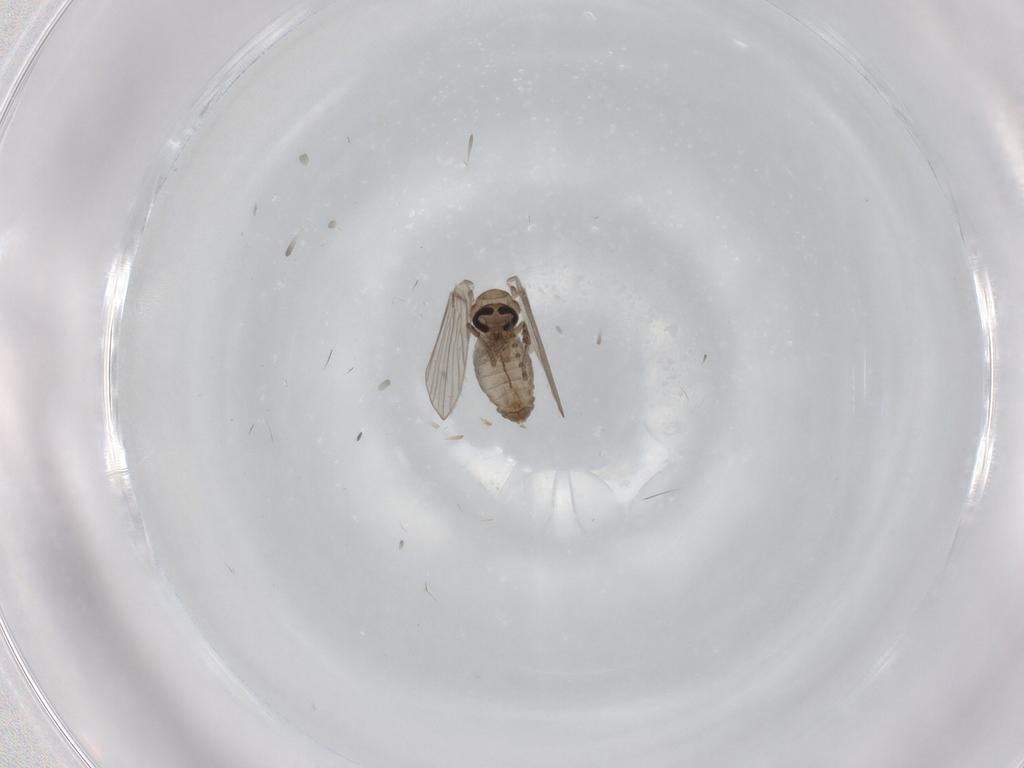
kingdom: Animalia
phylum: Arthropoda
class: Insecta
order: Diptera
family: Psychodidae
